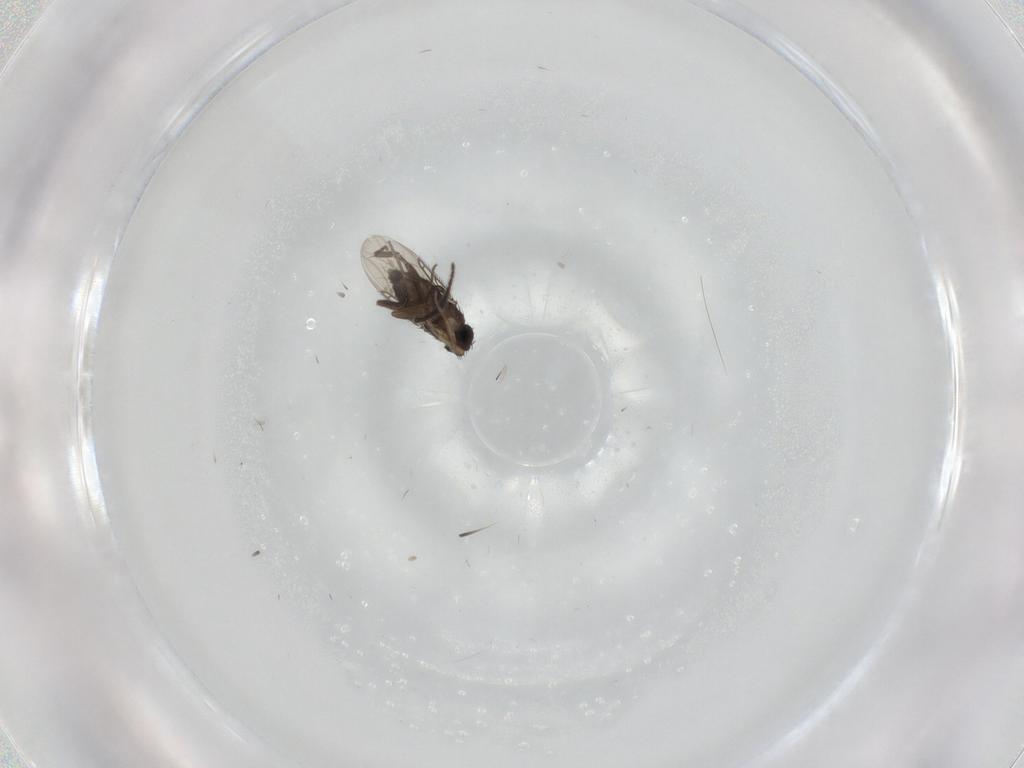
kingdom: Animalia
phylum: Arthropoda
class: Insecta
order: Diptera
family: Phoridae
